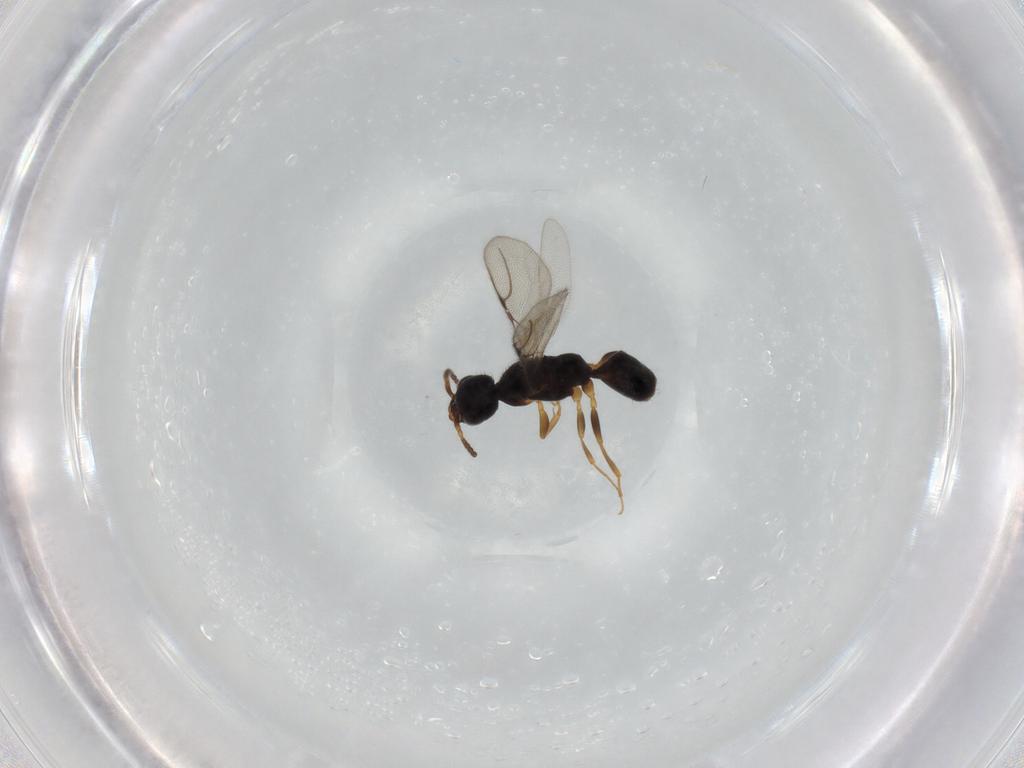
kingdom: Animalia
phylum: Arthropoda
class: Insecta
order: Hymenoptera
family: Bethylidae
